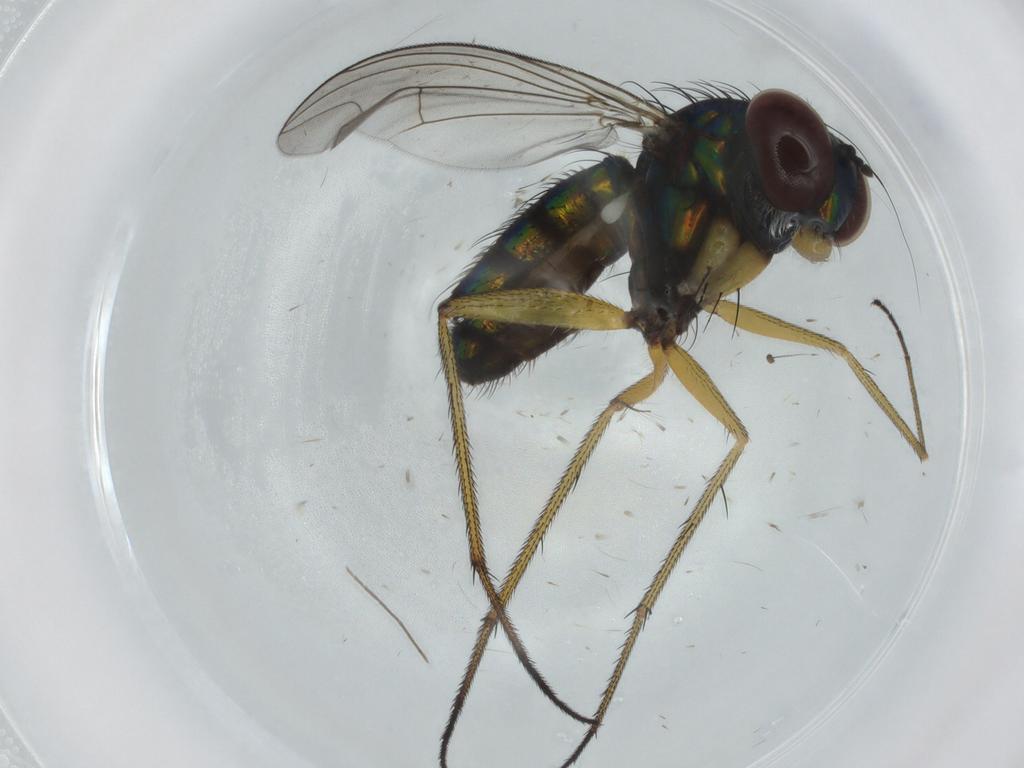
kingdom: Animalia
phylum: Arthropoda
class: Insecta
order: Diptera
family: Dolichopodidae
